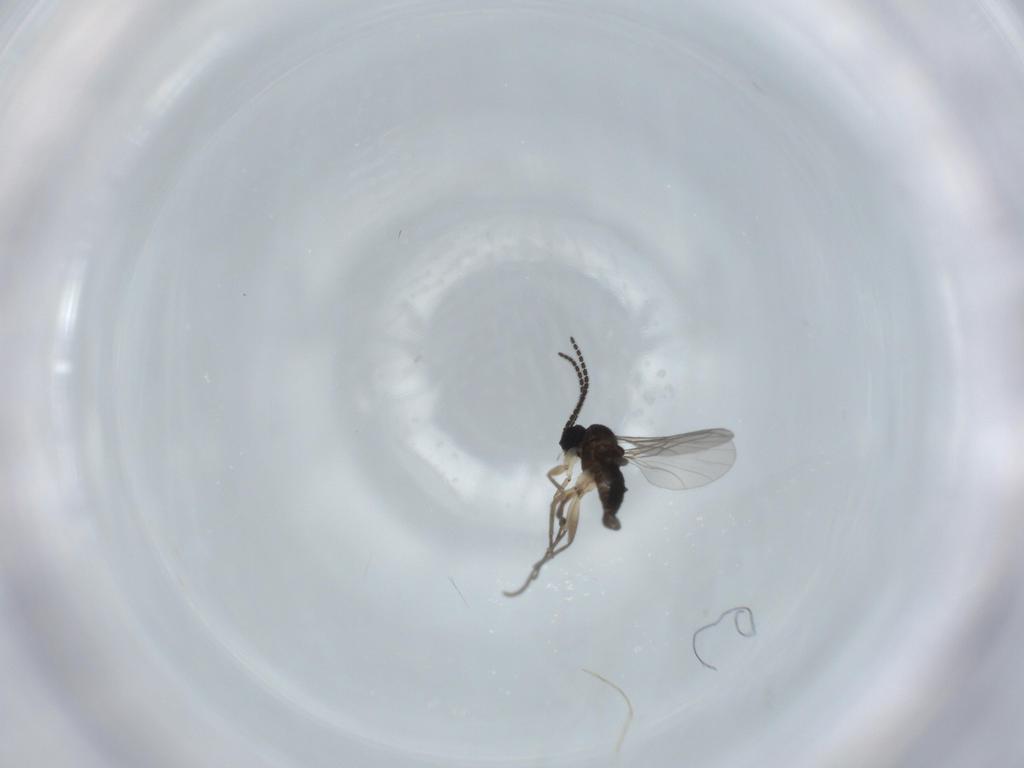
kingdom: Animalia
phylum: Arthropoda
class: Insecta
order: Diptera
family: Sciaridae
